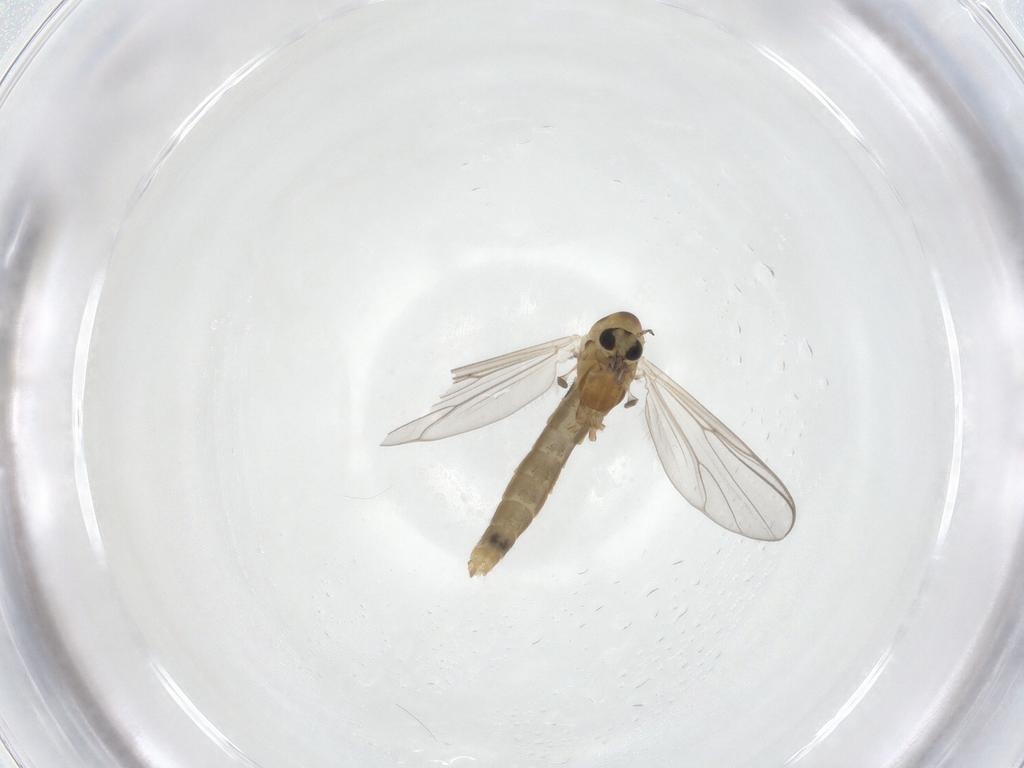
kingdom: Animalia
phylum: Arthropoda
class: Insecta
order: Diptera
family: Chironomidae
